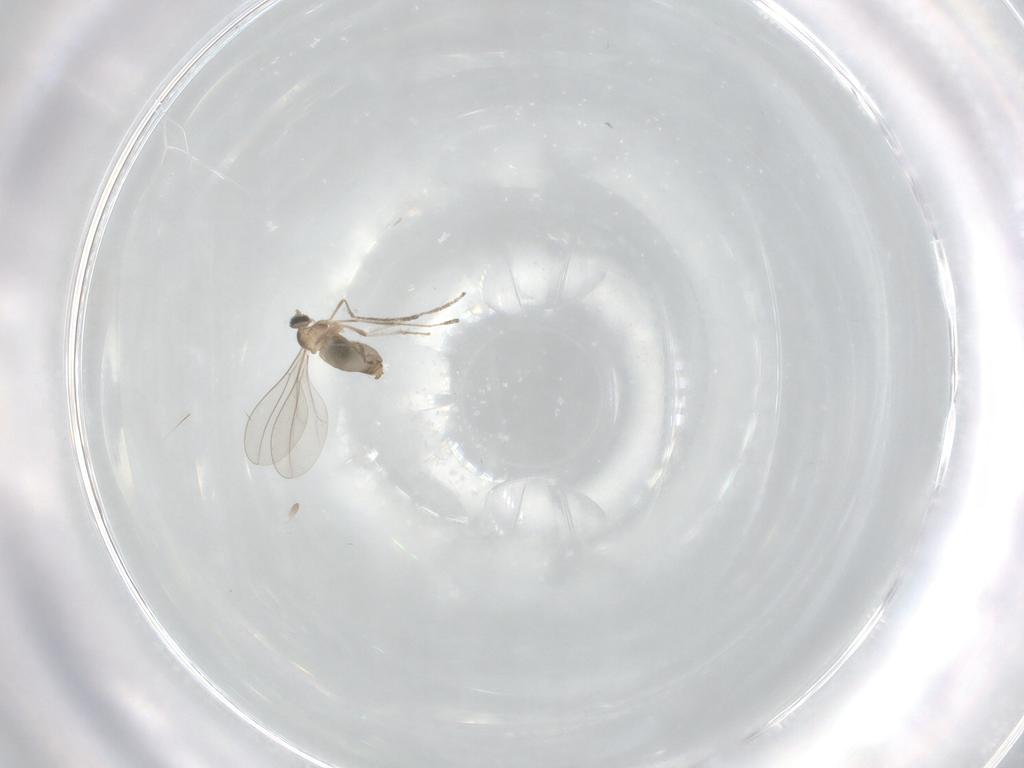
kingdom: Animalia
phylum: Arthropoda
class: Insecta
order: Diptera
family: Cecidomyiidae
